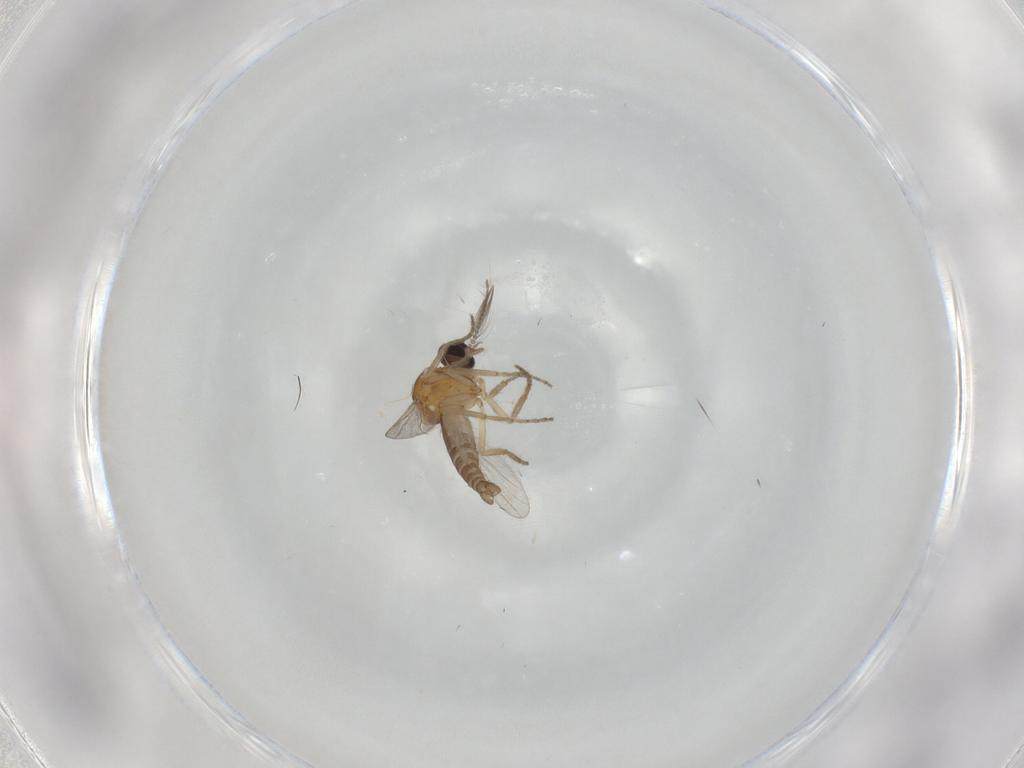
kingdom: Animalia
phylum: Arthropoda
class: Insecta
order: Diptera
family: Ceratopogonidae
